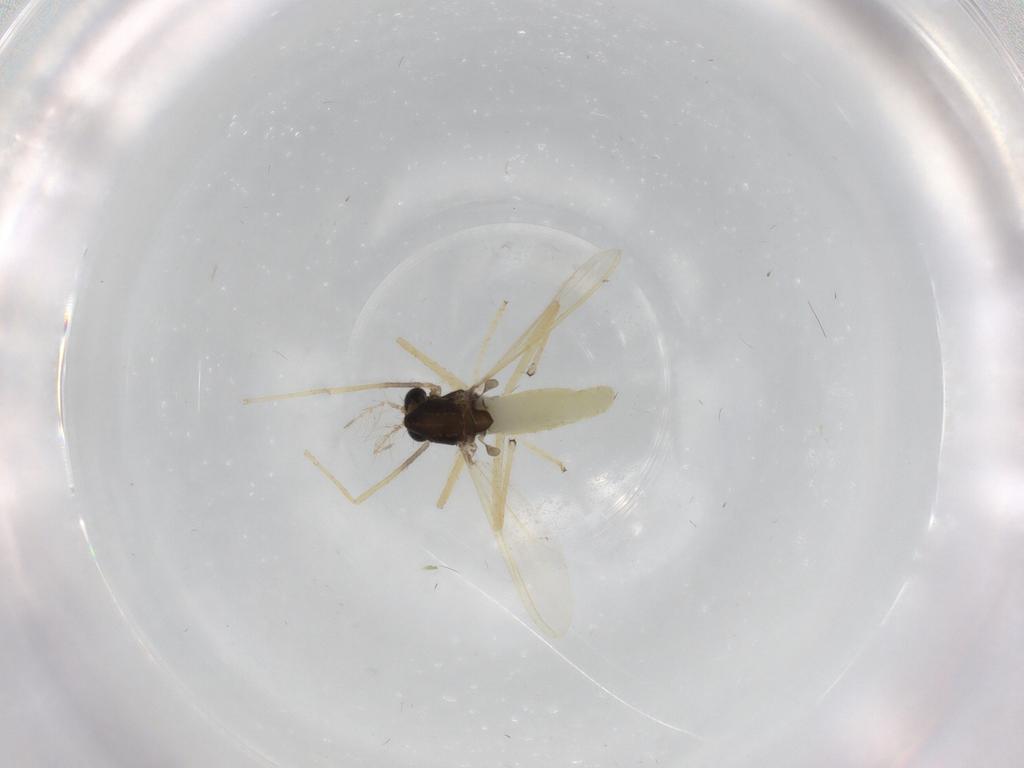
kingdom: Animalia
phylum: Arthropoda
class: Insecta
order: Diptera
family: Chironomidae
